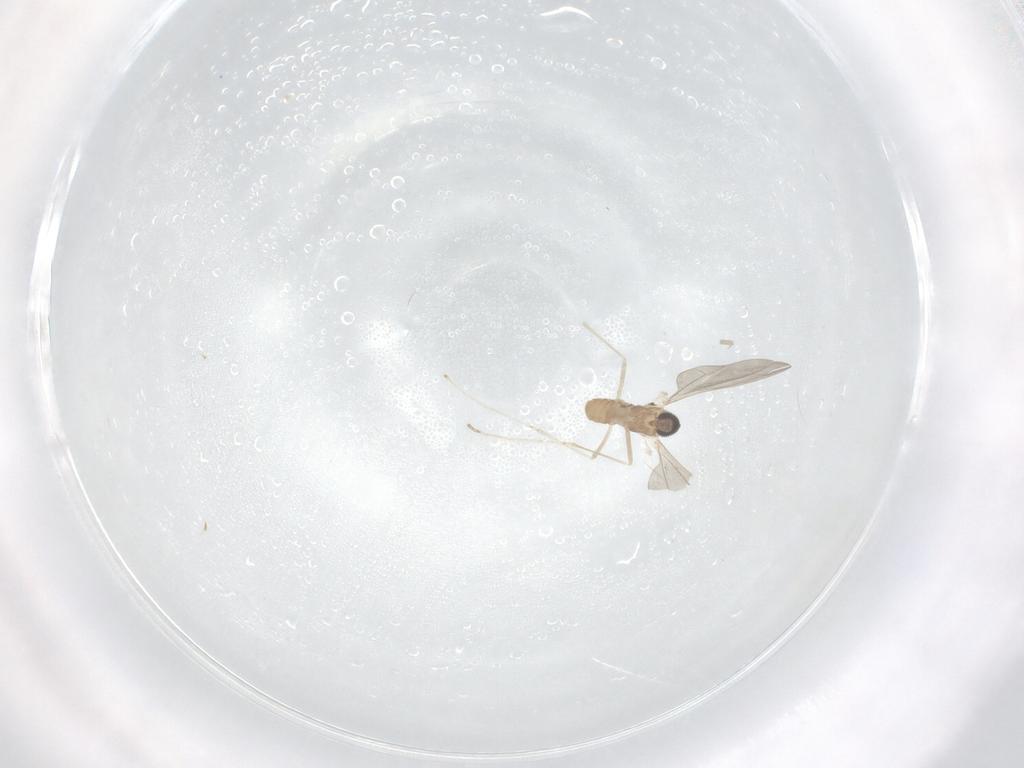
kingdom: Animalia
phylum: Arthropoda
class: Insecta
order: Diptera
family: Cecidomyiidae
